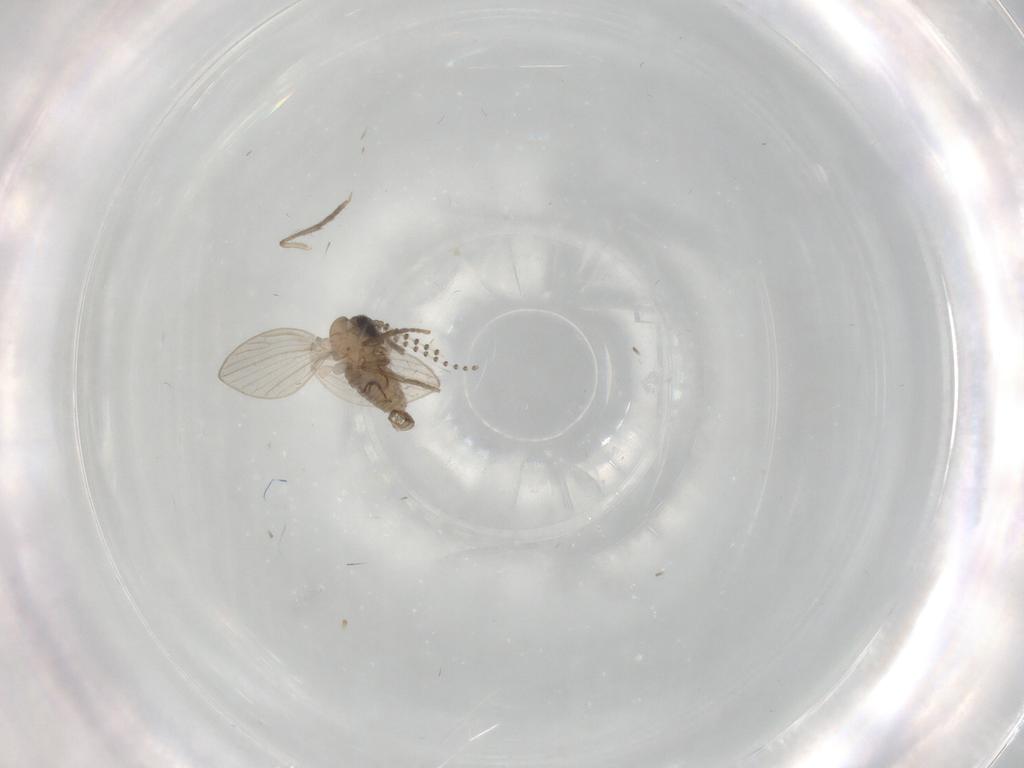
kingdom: Animalia
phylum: Arthropoda
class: Insecta
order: Diptera
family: Psychodidae
